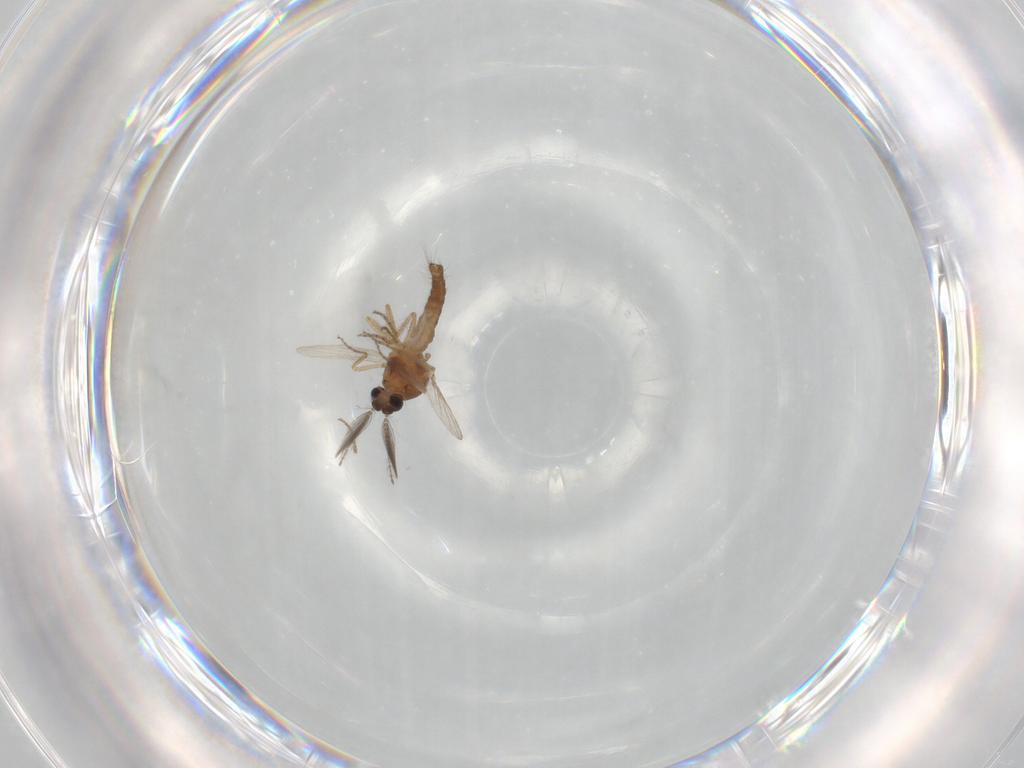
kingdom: Animalia
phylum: Arthropoda
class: Insecta
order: Diptera
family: Ceratopogonidae
